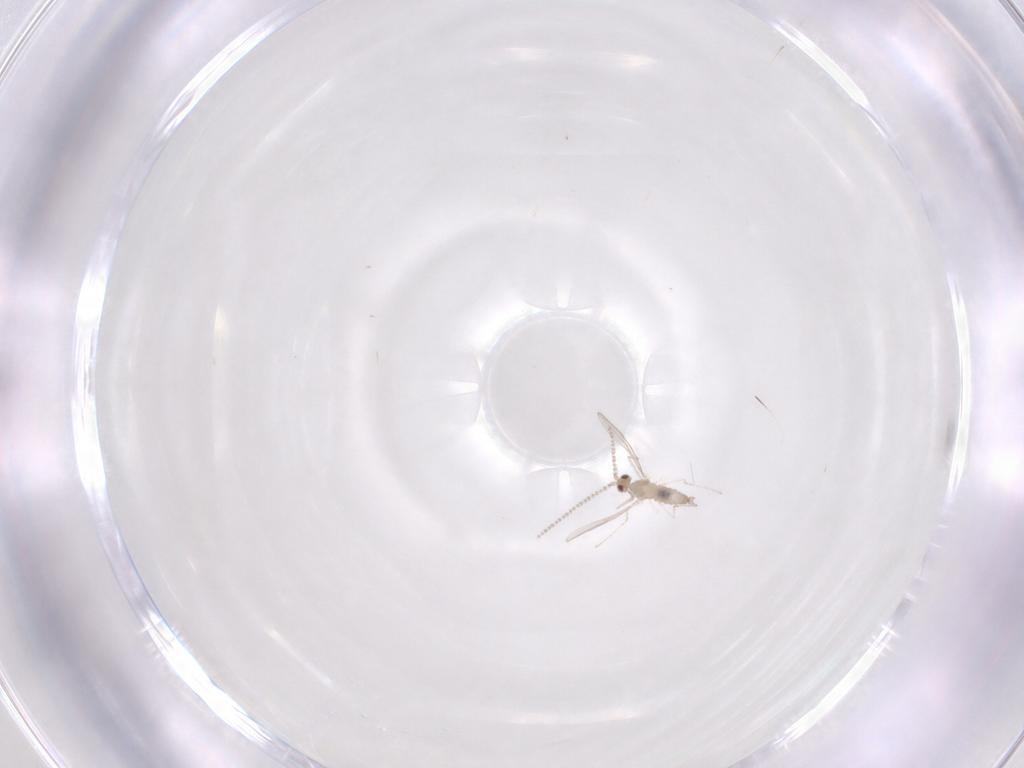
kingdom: Animalia
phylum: Arthropoda
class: Insecta
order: Diptera
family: Cecidomyiidae
